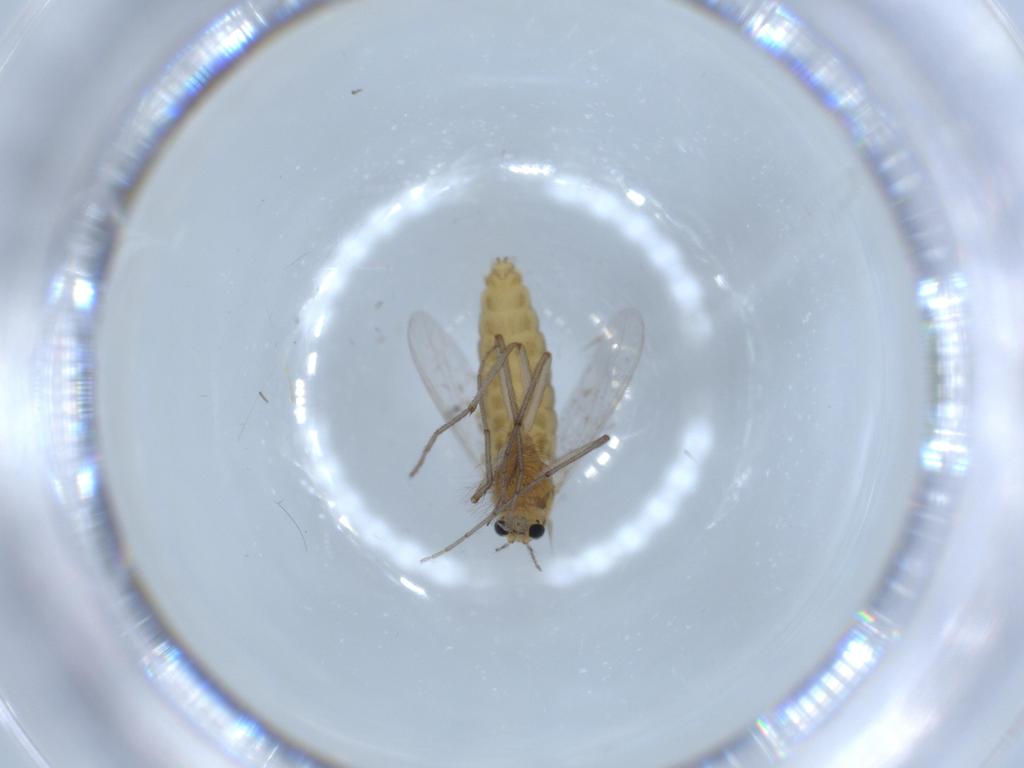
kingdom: Animalia
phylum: Arthropoda
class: Insecta
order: Diptera
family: Chironomidae
